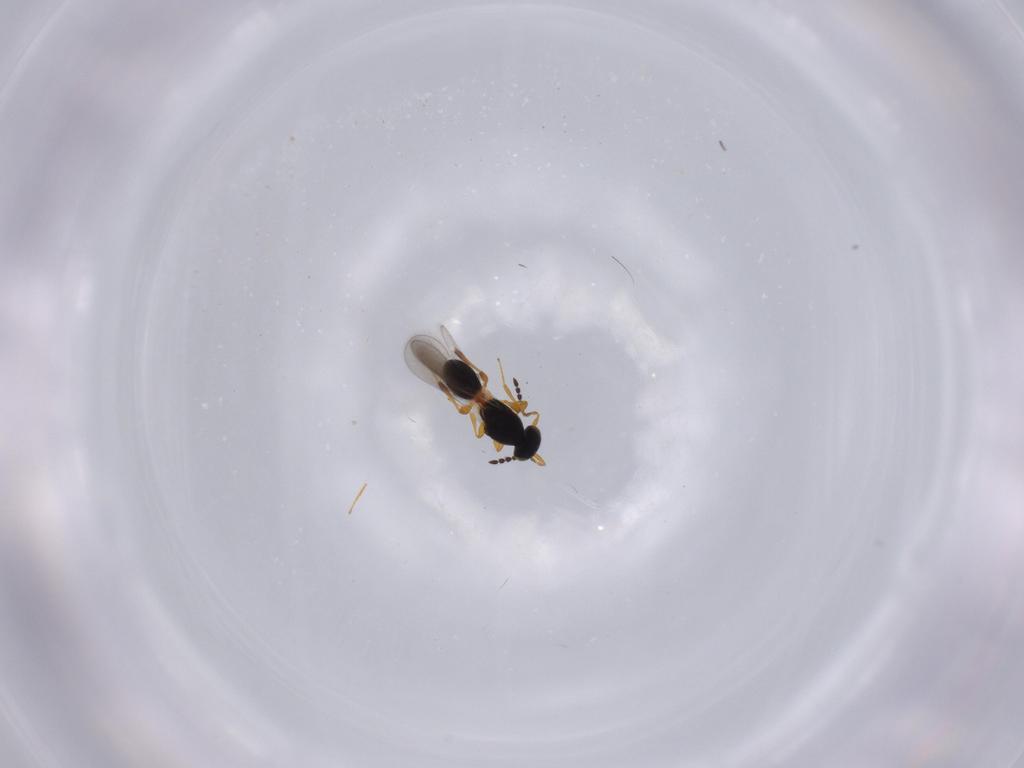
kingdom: Animalia
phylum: Arthropoda
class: Insecta
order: Hymenoptera
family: Platygastridae
